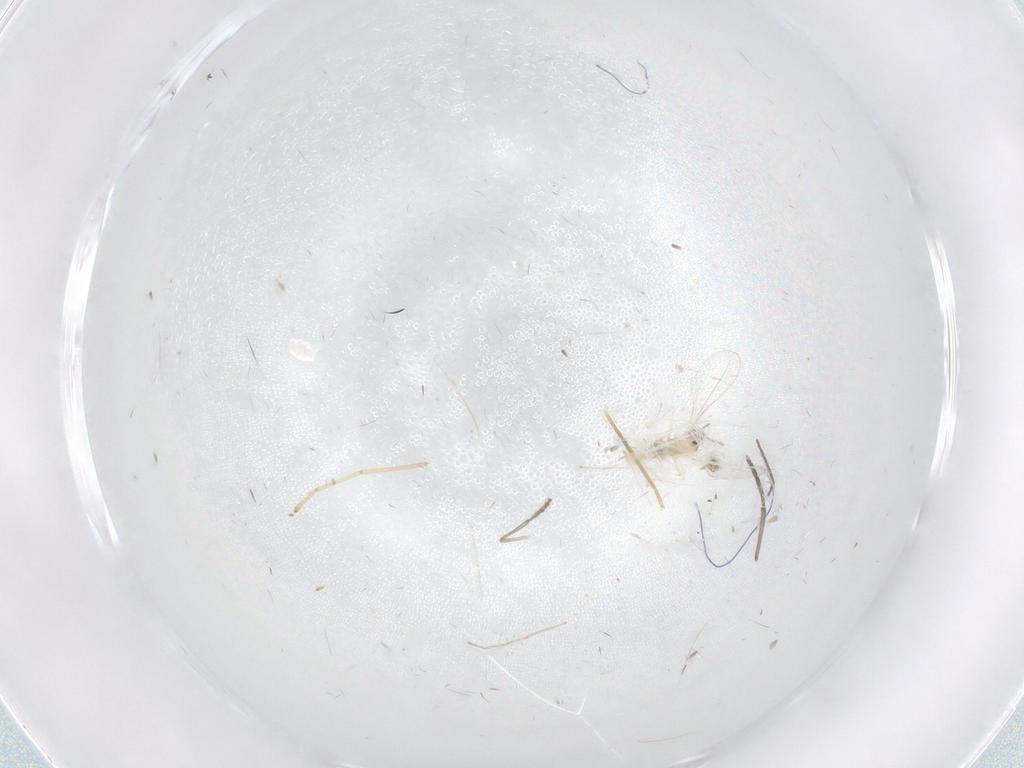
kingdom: Animalia
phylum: Arthropoda
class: Insecta
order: Diptera
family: Cecidomyiidae
